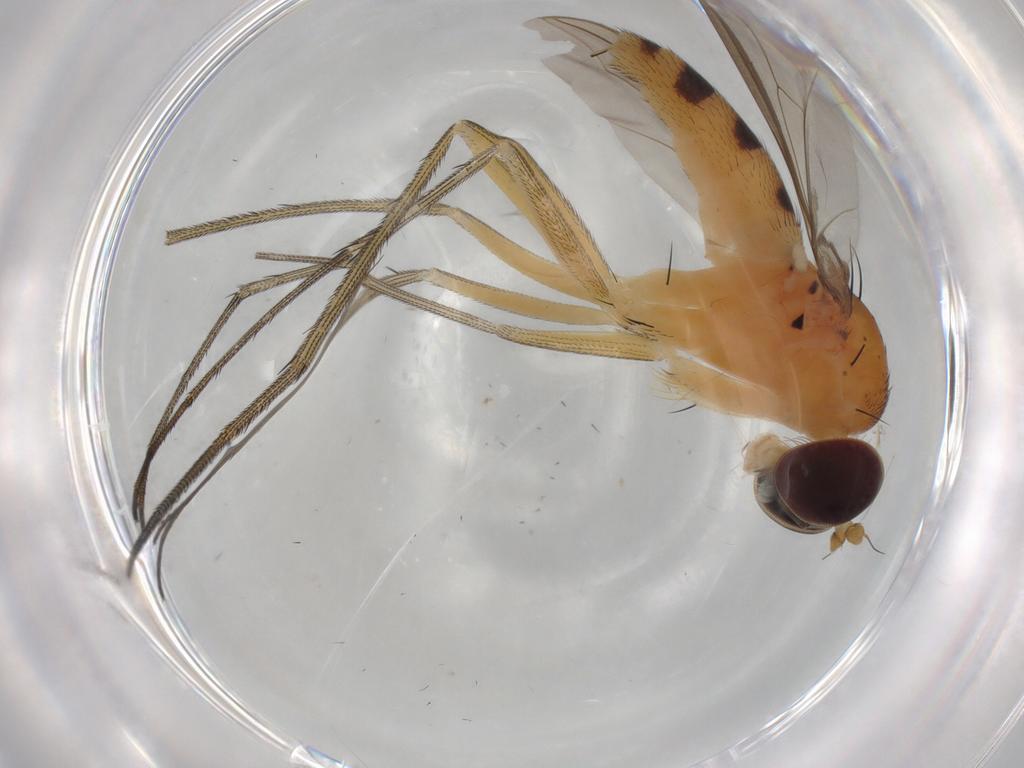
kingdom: Animalia
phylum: Arthropoda
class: Insecta
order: Diptera
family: Dolichopodidae
